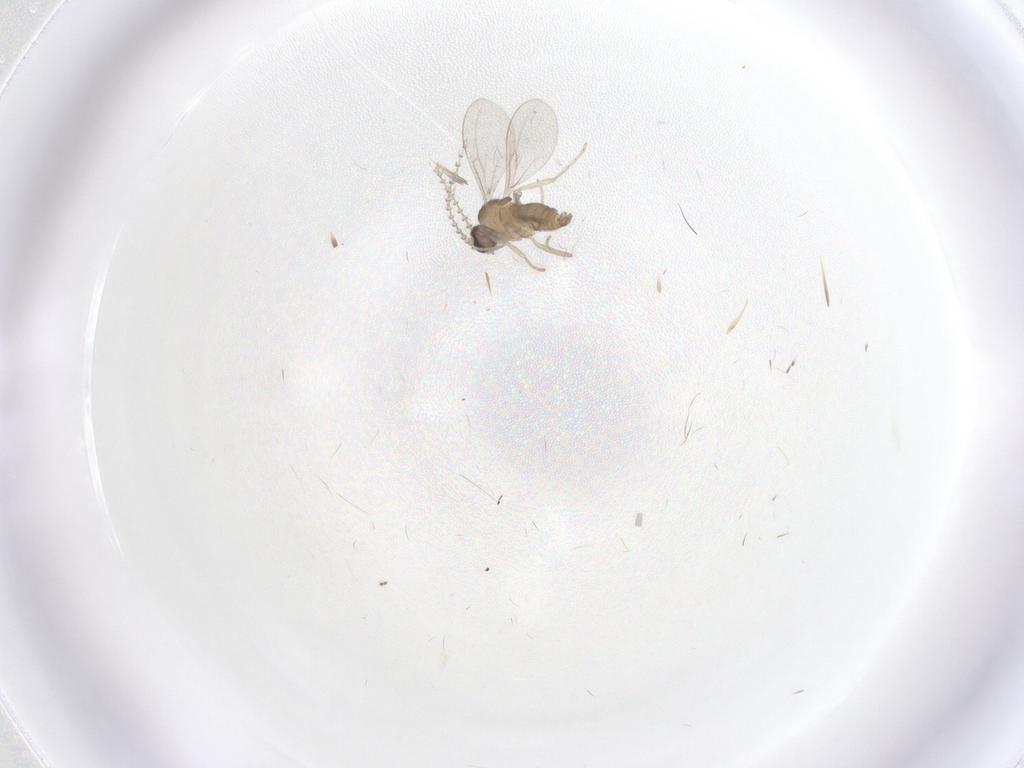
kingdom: Animalia
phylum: Arthropoda
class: Insecta
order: Diptera
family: Cecidomyiidae
